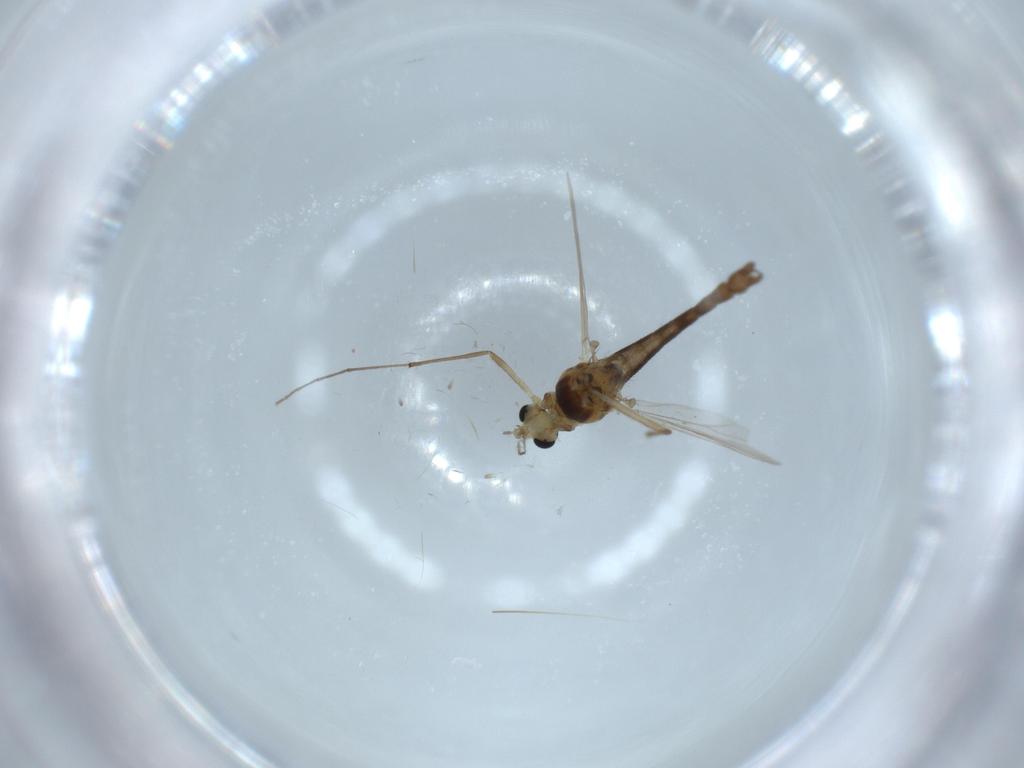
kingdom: Animalia
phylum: Arthropoda
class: Insecta
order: Diptera
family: Chironomidae
